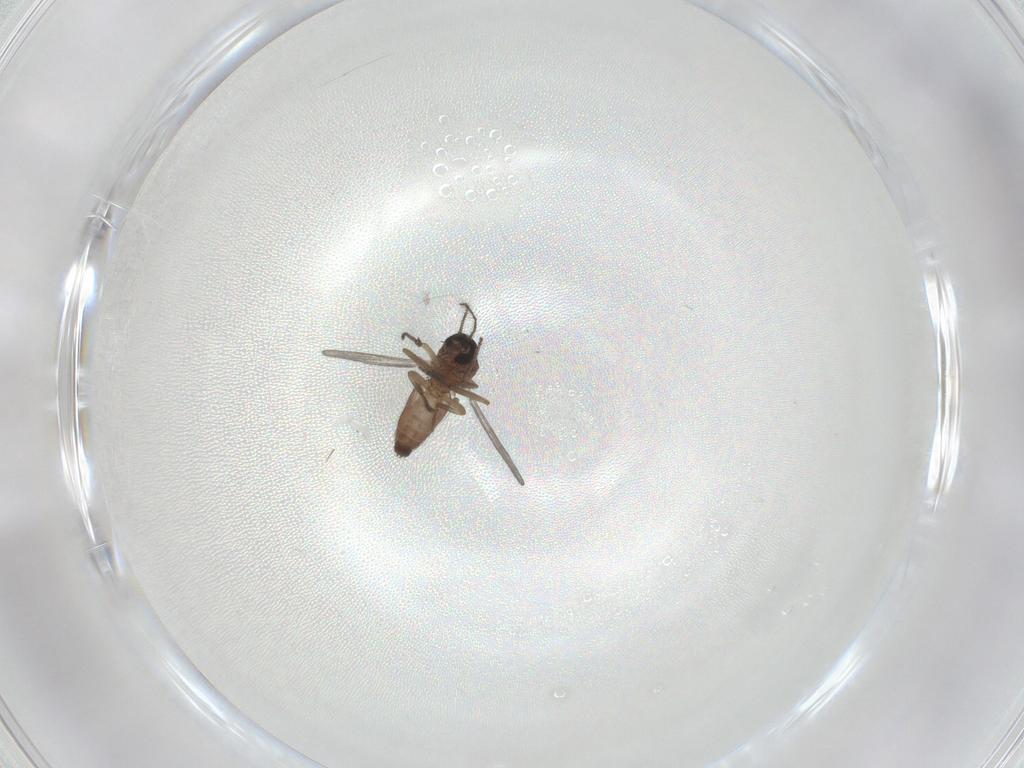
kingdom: Animalia
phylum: Arthropoda
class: Insecta
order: Diptera
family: Ceratopogonidae
